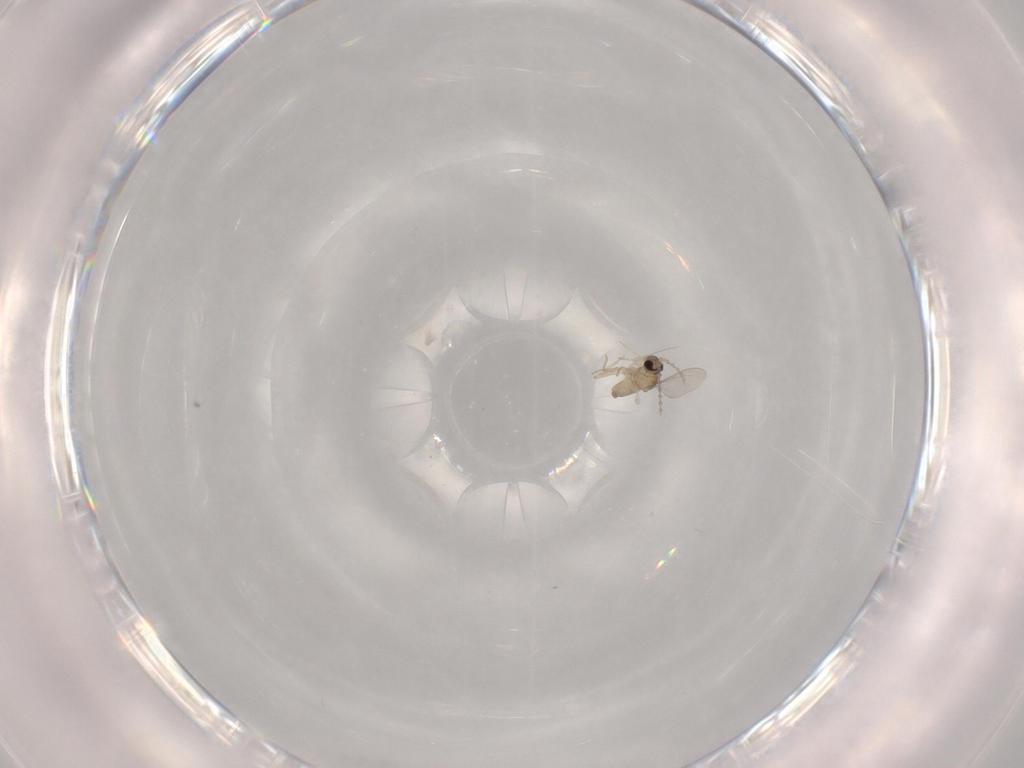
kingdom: Animalia
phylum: Arthropoda
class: Insecta
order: Diptera
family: Cecidomyiidae
